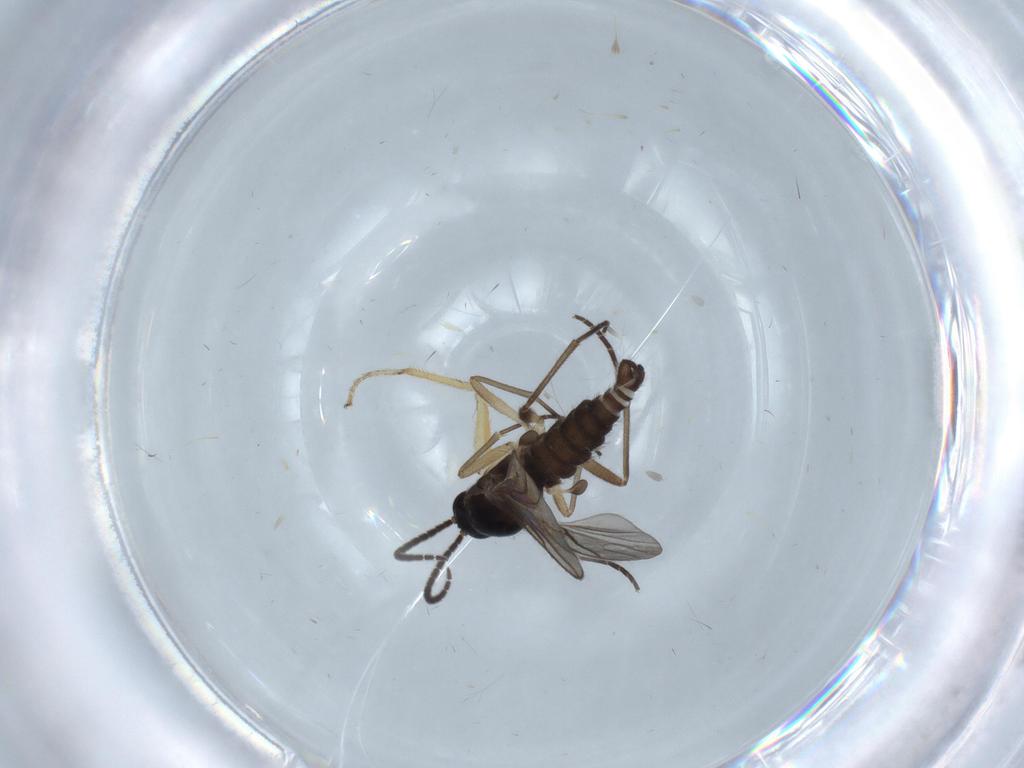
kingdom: Animalia
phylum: Arthropoda
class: Insecta
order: Diptera
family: Hybotidae
